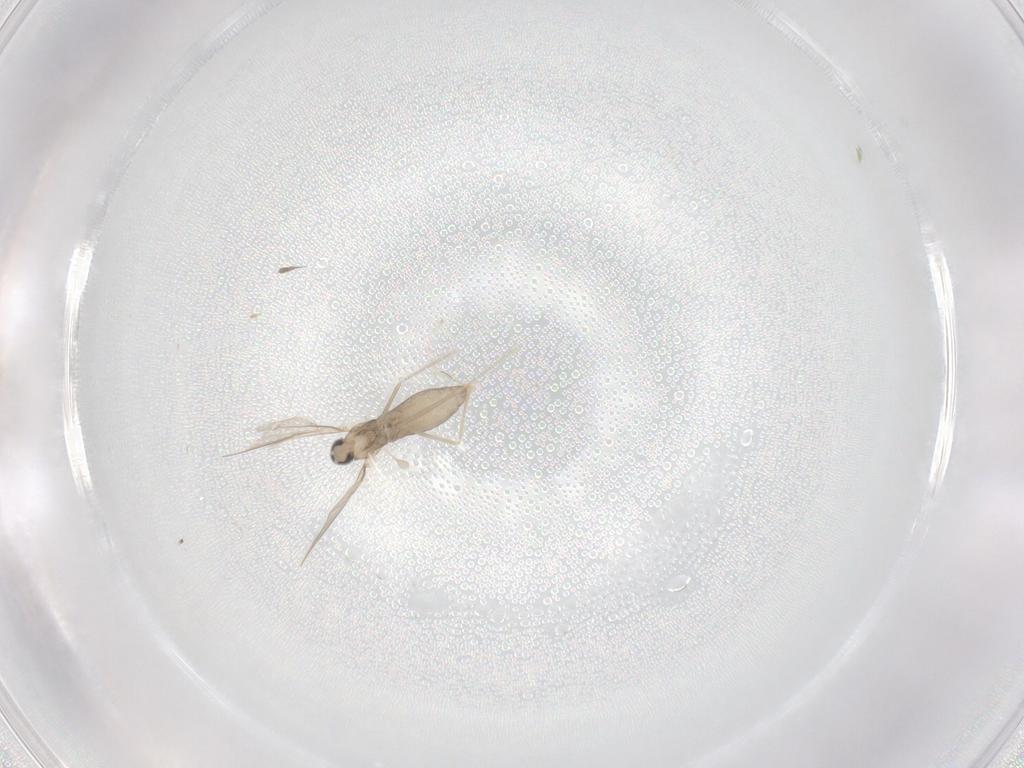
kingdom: Animalia
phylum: Arthropoda
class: Insecta
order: Diptera
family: Cecidomyiidae
